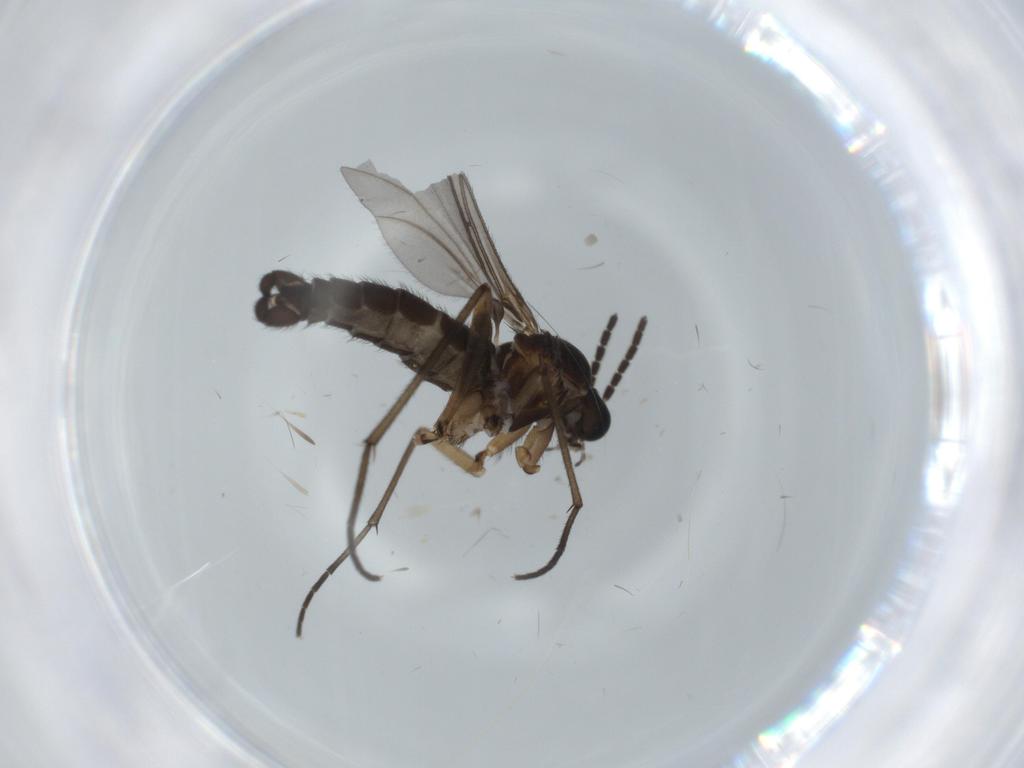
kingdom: Animalia
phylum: Arthropoda
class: Insecta
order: Diptera
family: Sciaridae
